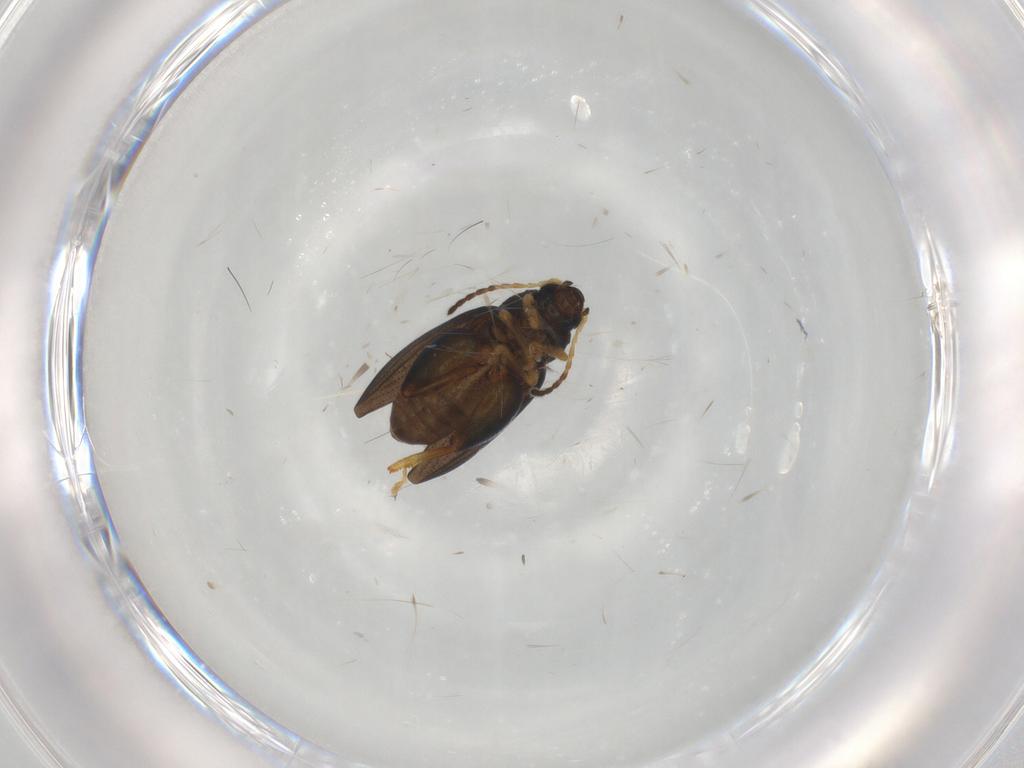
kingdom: Animalia
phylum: Arthropoda
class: Insecta
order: Coleoptera
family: Chrysomelidae
